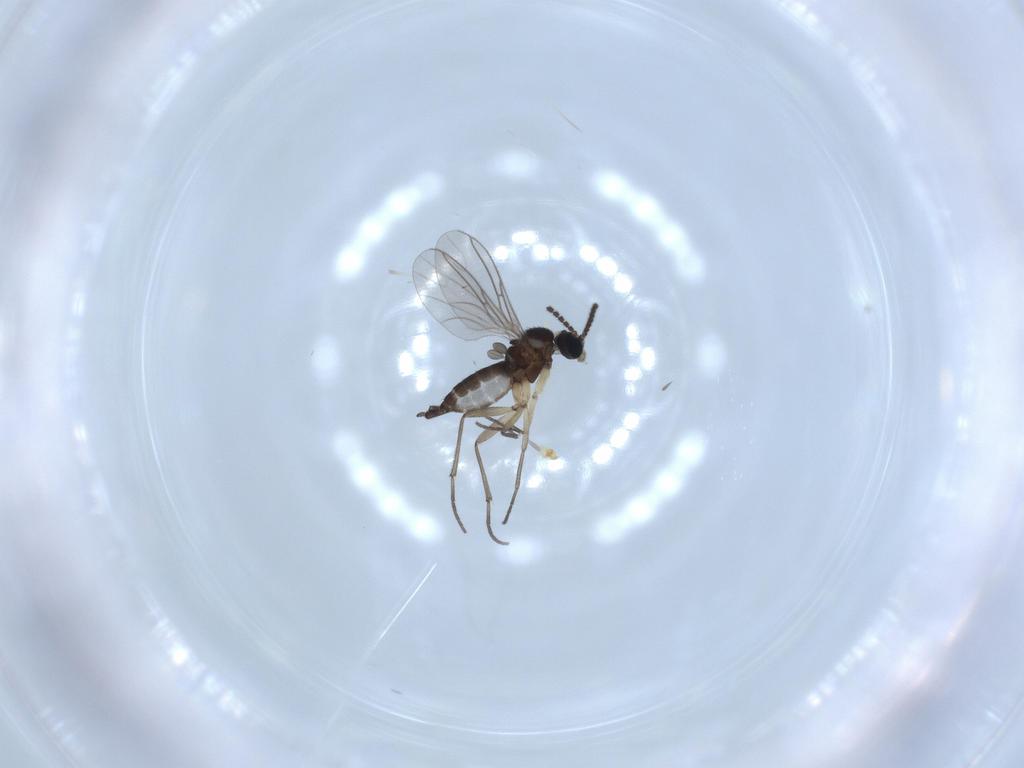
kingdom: Animalia
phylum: Arthropoda
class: Insecta
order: Diptera
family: Sciaridae
